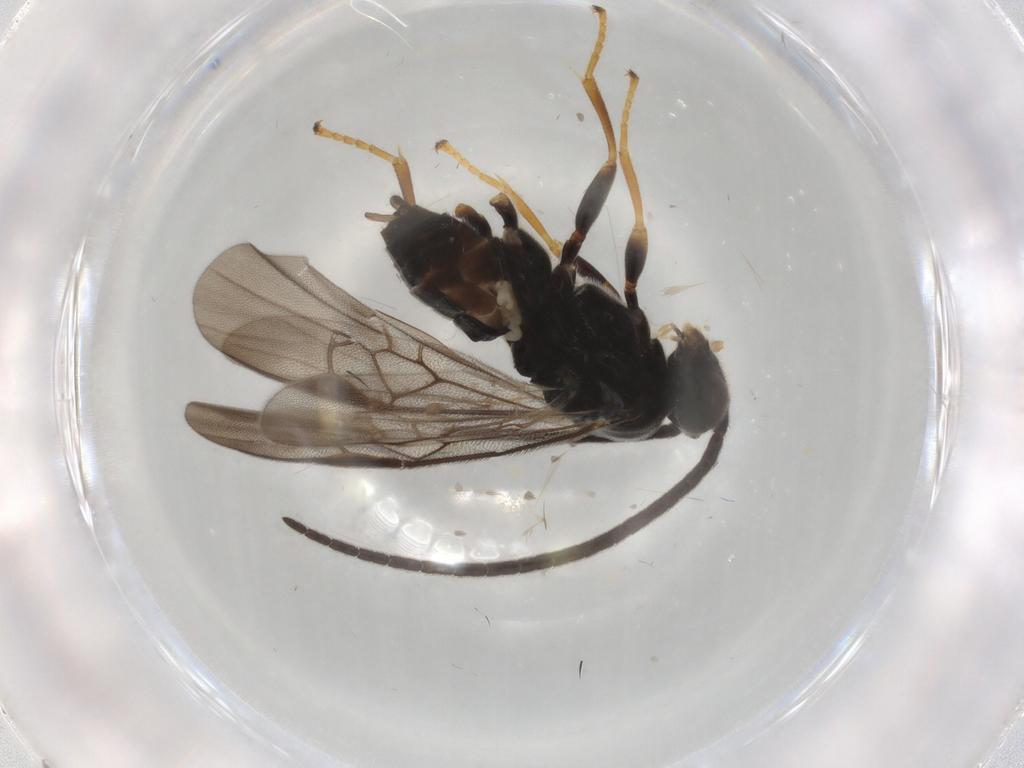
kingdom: Animalia
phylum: Arthropoda
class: Insecta
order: Hymenoptera
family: Braconidae
